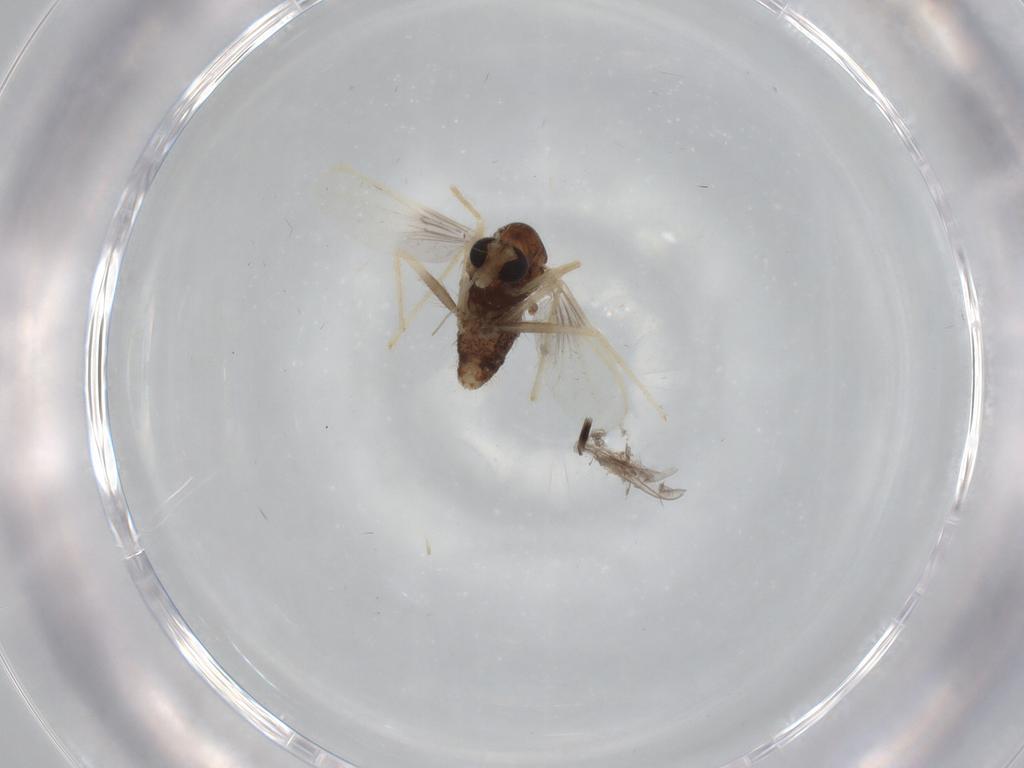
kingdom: Animalia
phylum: Arthropoda
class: Insecta
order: Diptera
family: Chironomidae
